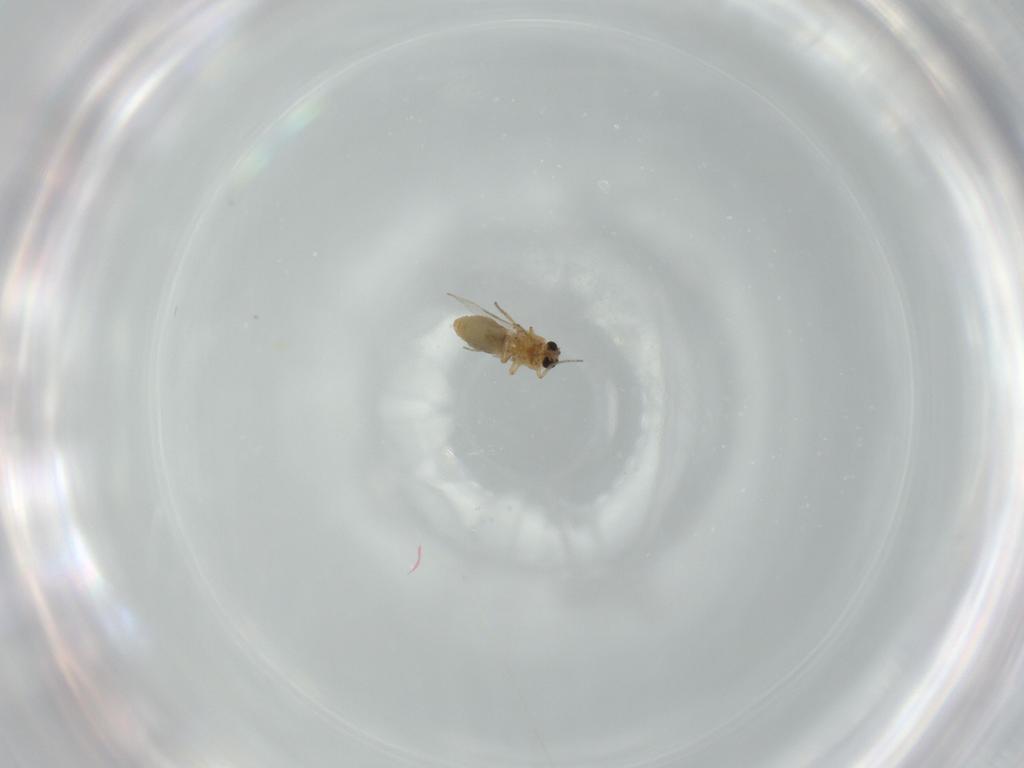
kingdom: Animalia
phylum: Arthropoda
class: Insecta
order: Diptera
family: Ceratopogonidae
